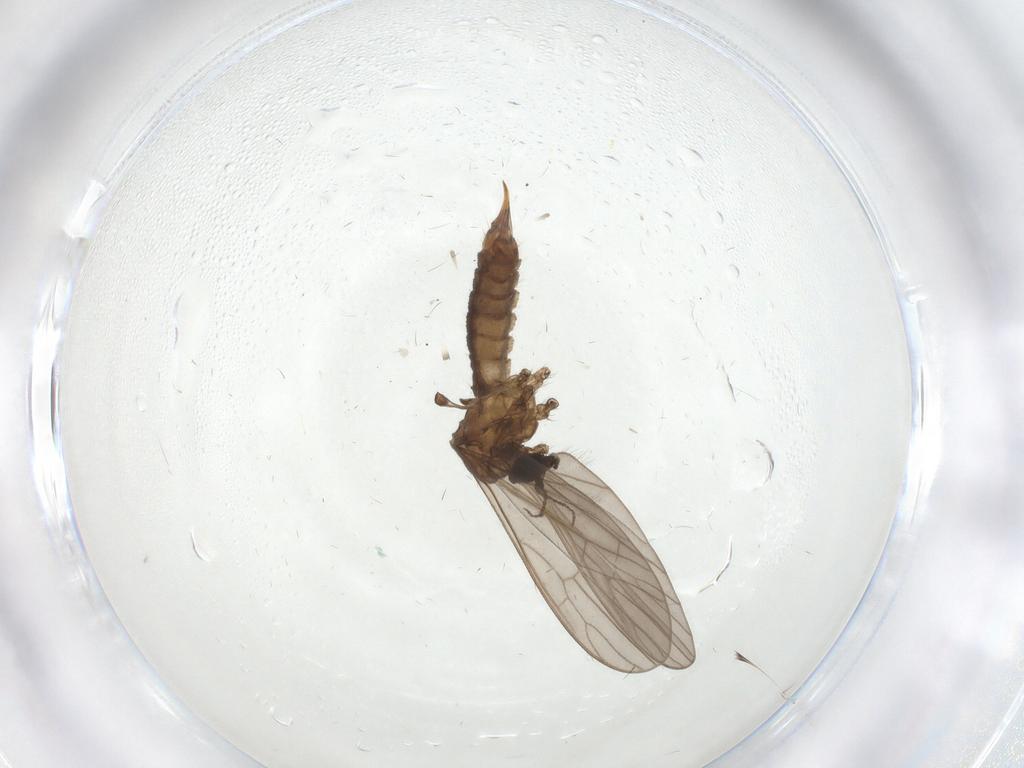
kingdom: Animalia
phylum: Arthropoda
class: Insecta
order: Diptera
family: Limoniidae
